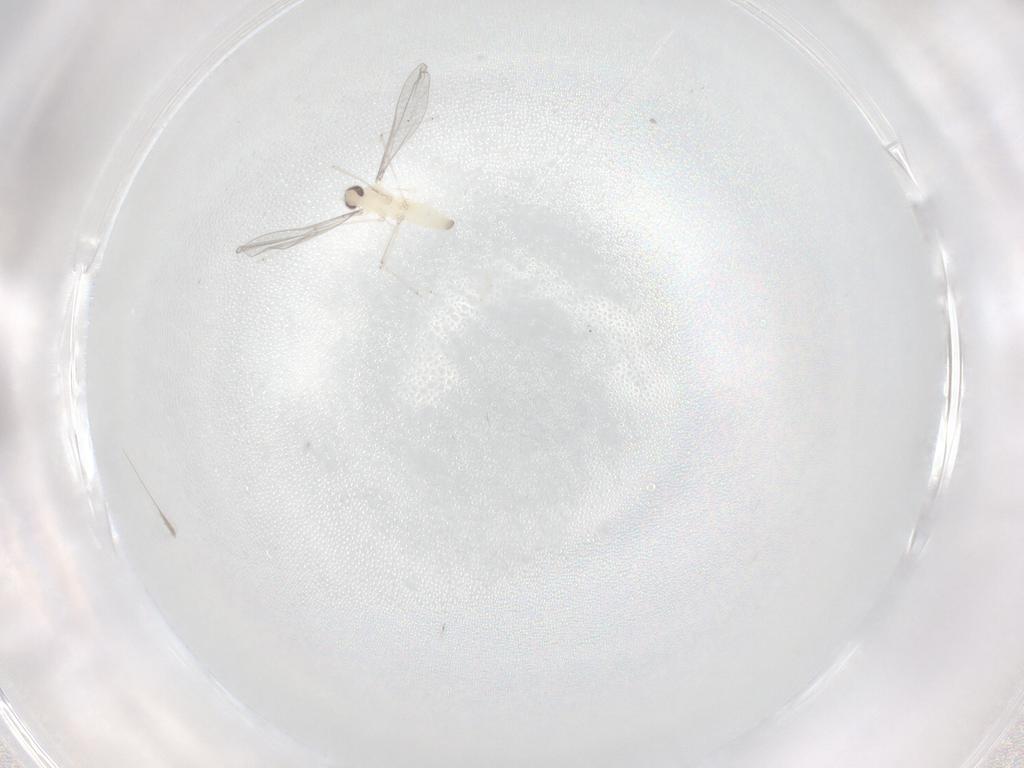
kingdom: Animalia
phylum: Arthropoda
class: Insecta
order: Diptera
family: Cecidomyiidae
